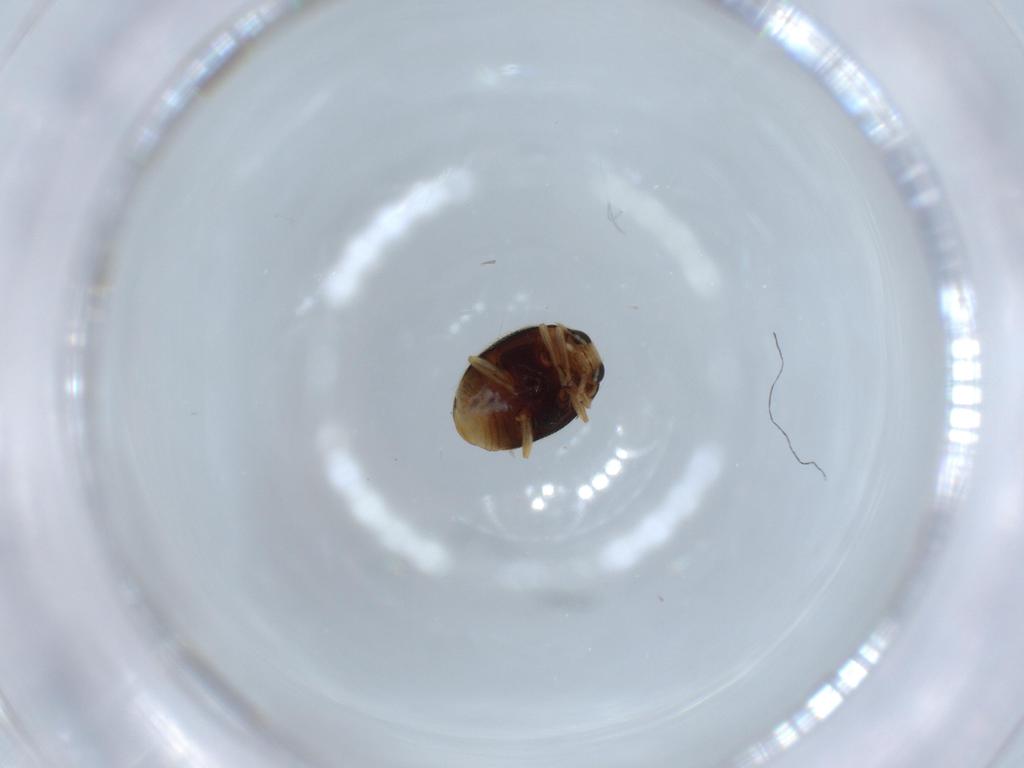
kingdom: Animalia
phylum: Arthropoda
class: Insecta
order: Coleoptera
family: Coccinellidae
